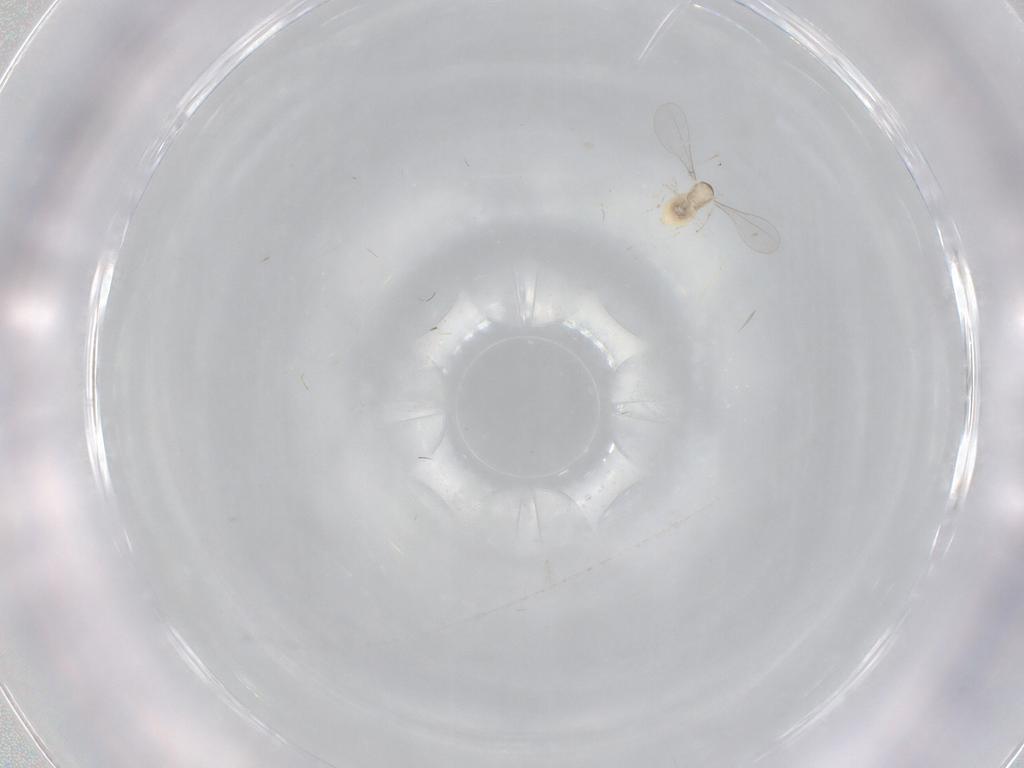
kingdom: Animalia
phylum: Arthropoda
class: Insecta
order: Diptera
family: Cecidomyiidae
